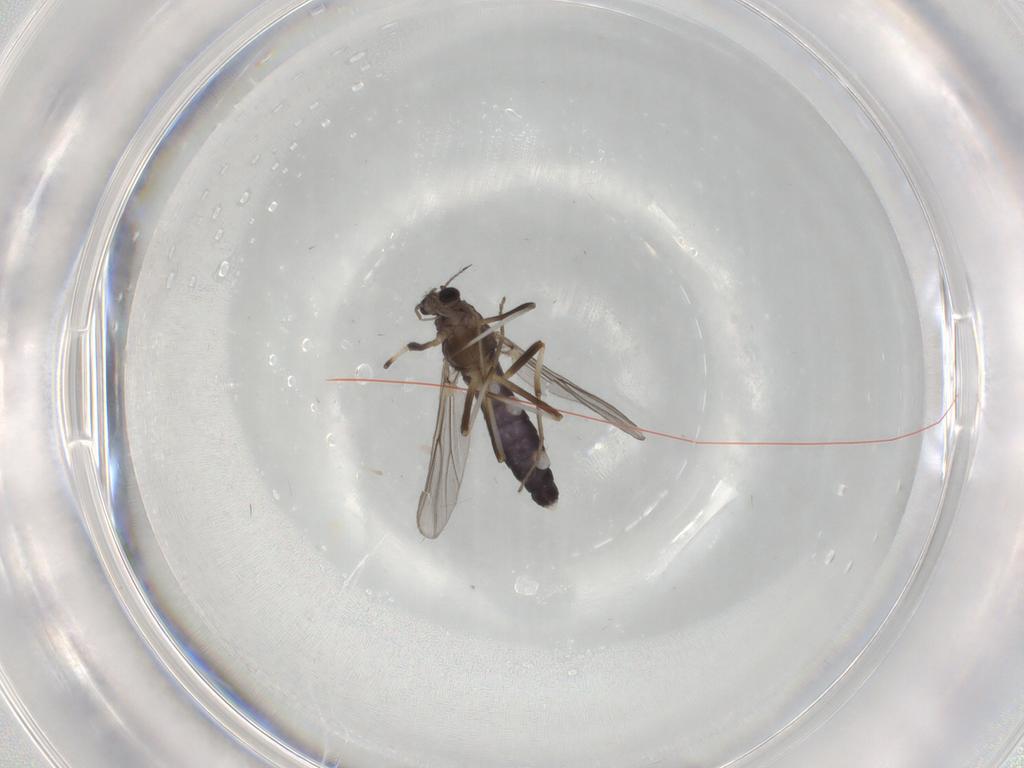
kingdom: Animalia
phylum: Arthropoda
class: Insecta
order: Diptera
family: Chironomidae
